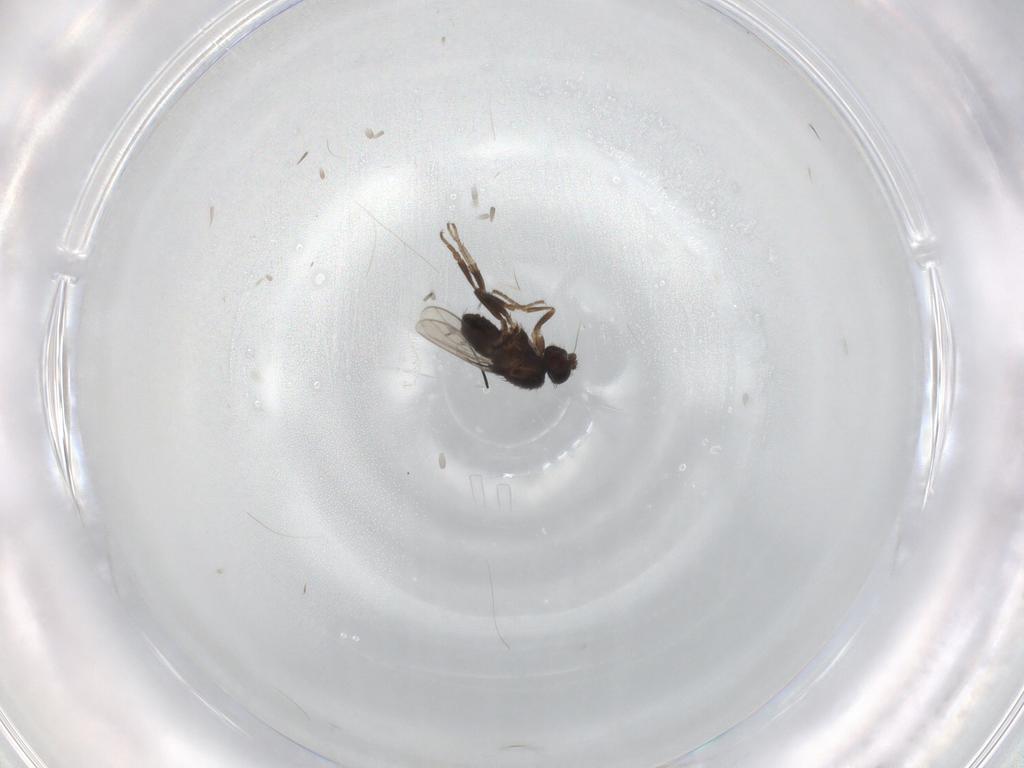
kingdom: Animalia
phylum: Arthropoda
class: Insecta
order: Diptera
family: Sphaeroceridae
